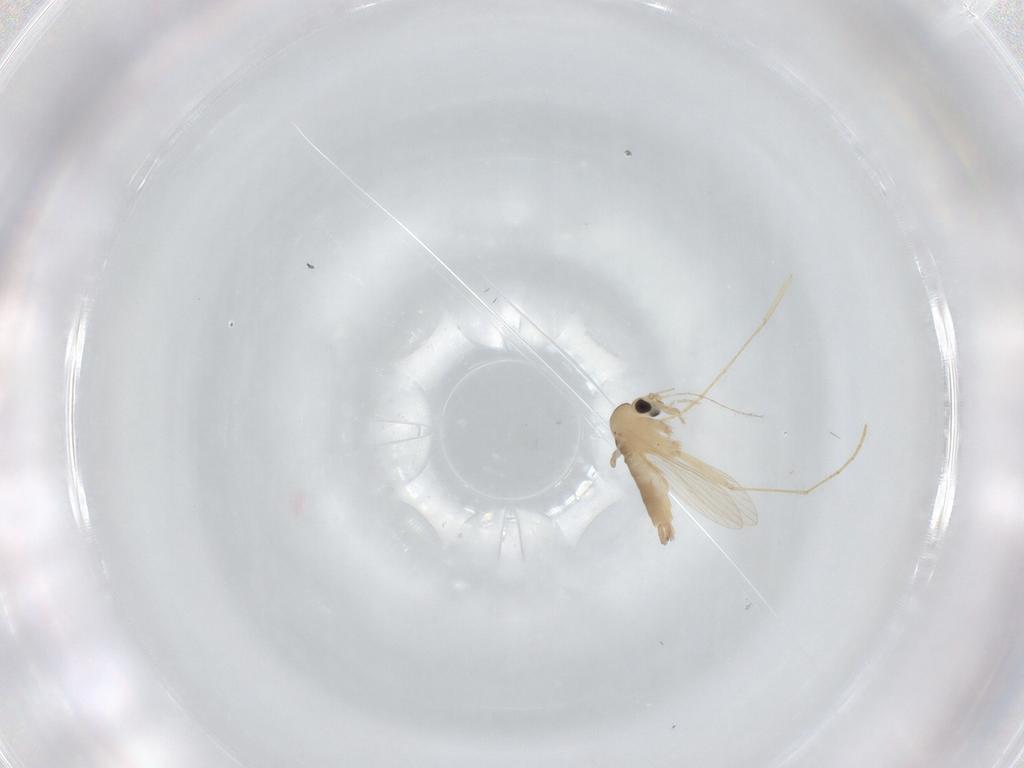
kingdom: Animalia
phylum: Arthropoda
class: Insecta
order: Diptera
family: Psychodidae
